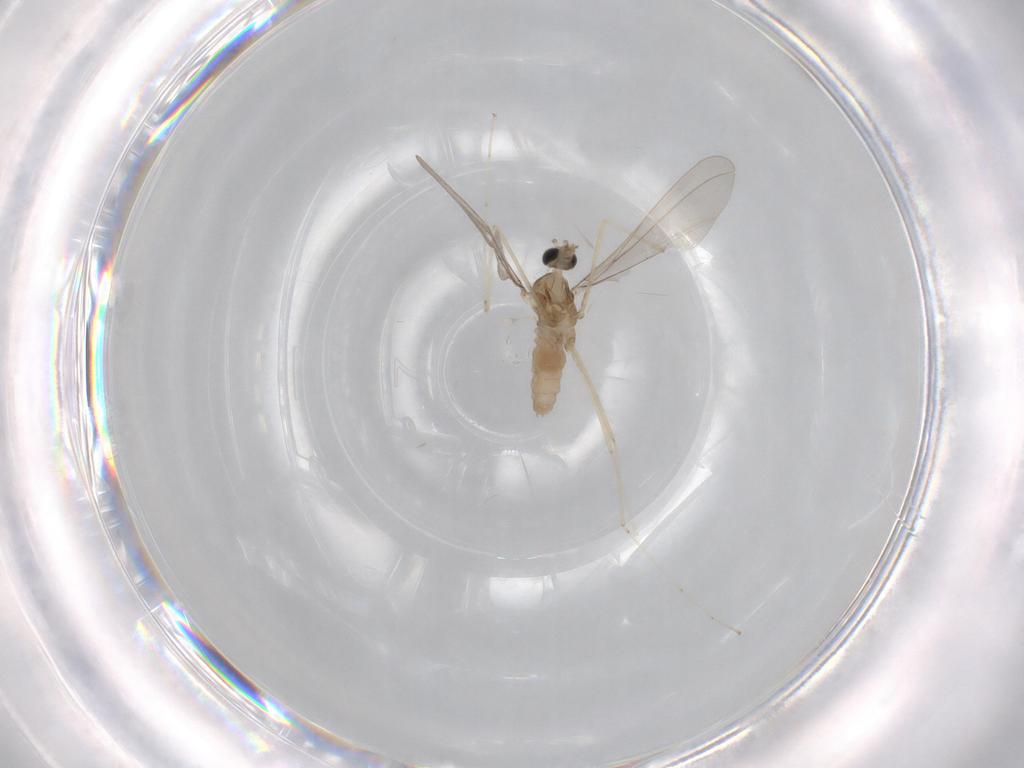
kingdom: Animalia
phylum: Arthropoda
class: Insecta
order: Diptera
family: Cecidomyiidae
